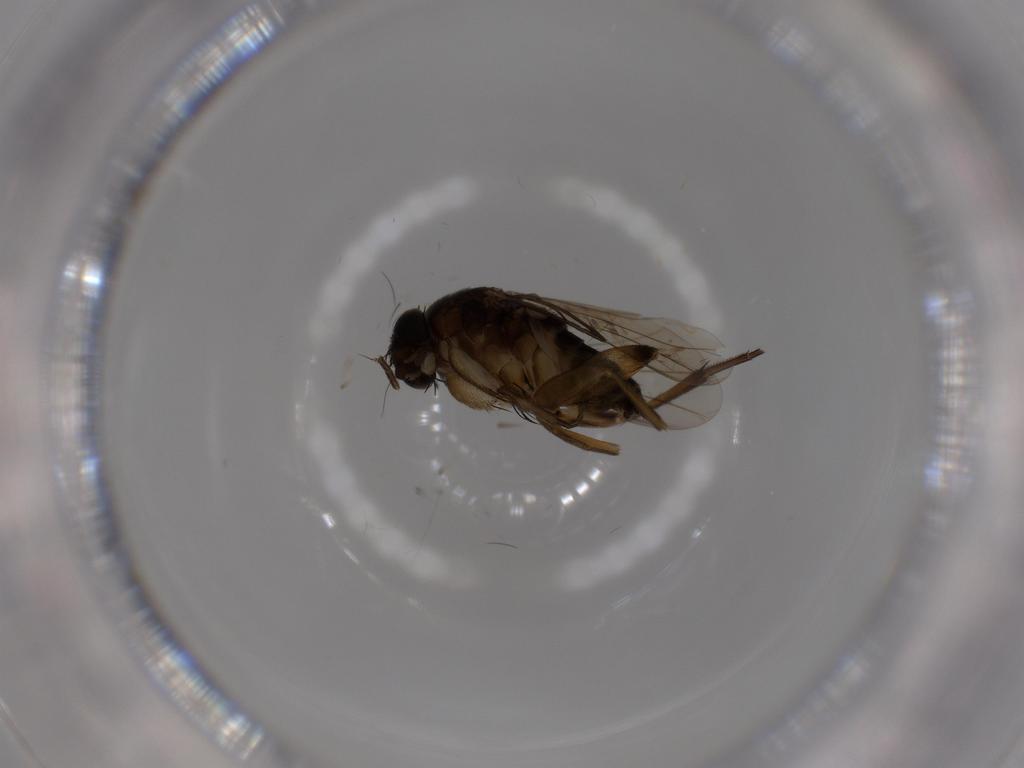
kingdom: Animalia
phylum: Arthropoda
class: Insecta
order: Diptera
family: Phoridae
